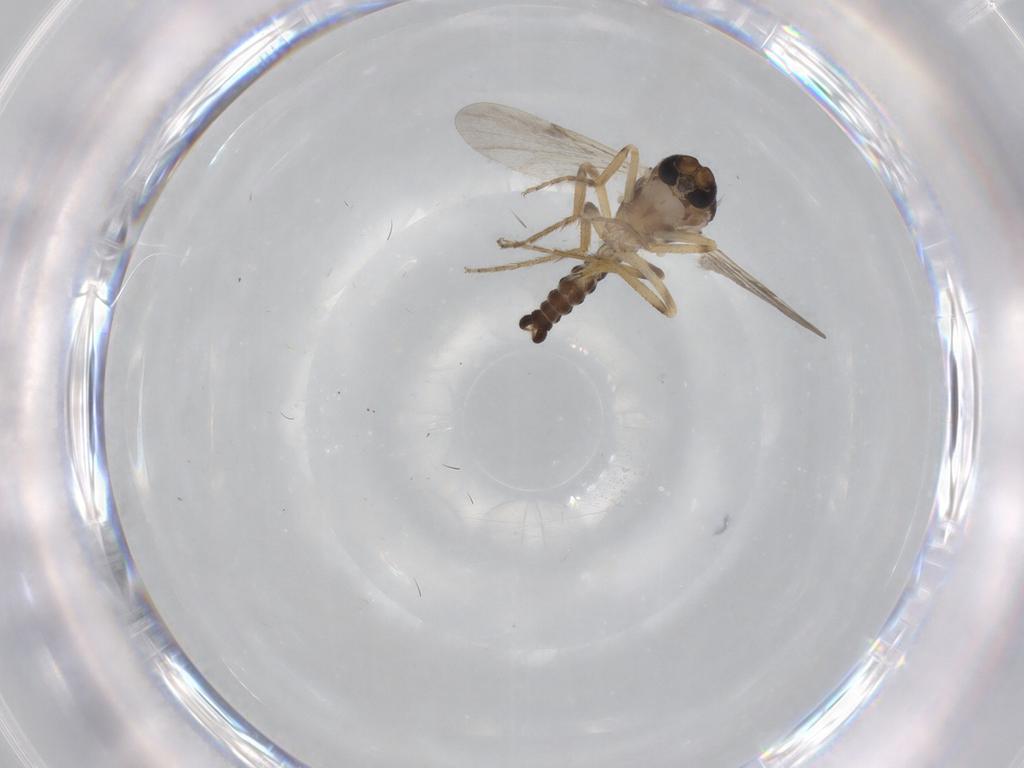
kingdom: Animalia
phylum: Arthropoda
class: Insecta
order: Diptera
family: Ceratopogonidae
